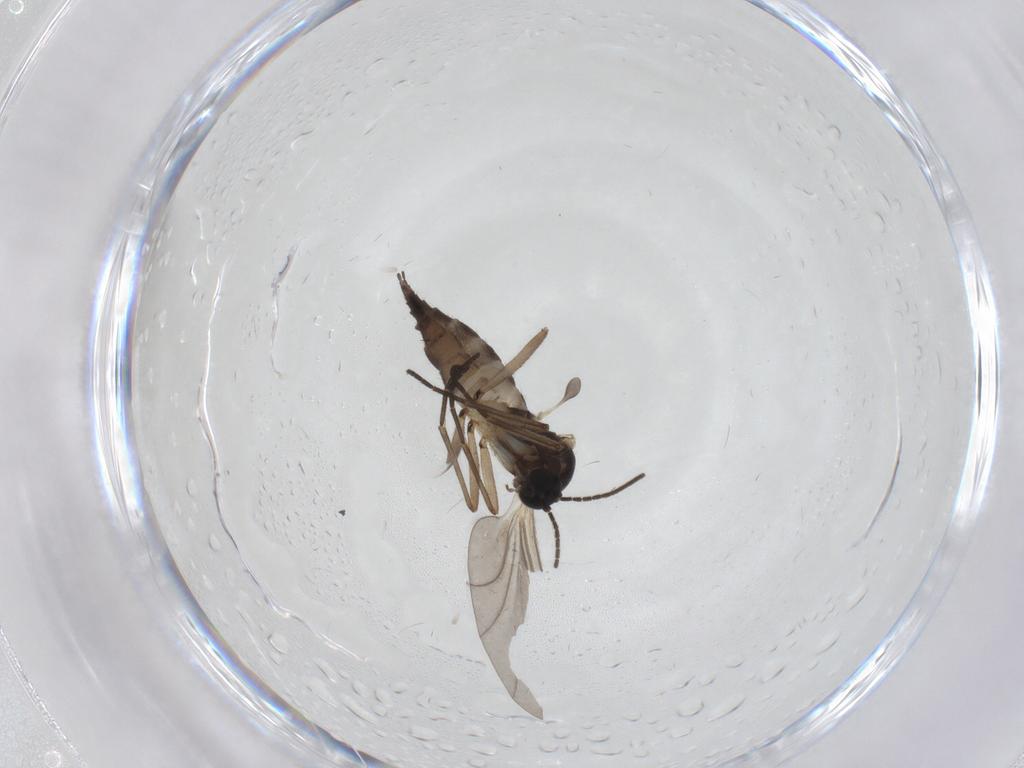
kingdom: Animalia
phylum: Arthropoda
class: Insecta
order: Diptera
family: Sciaridae
